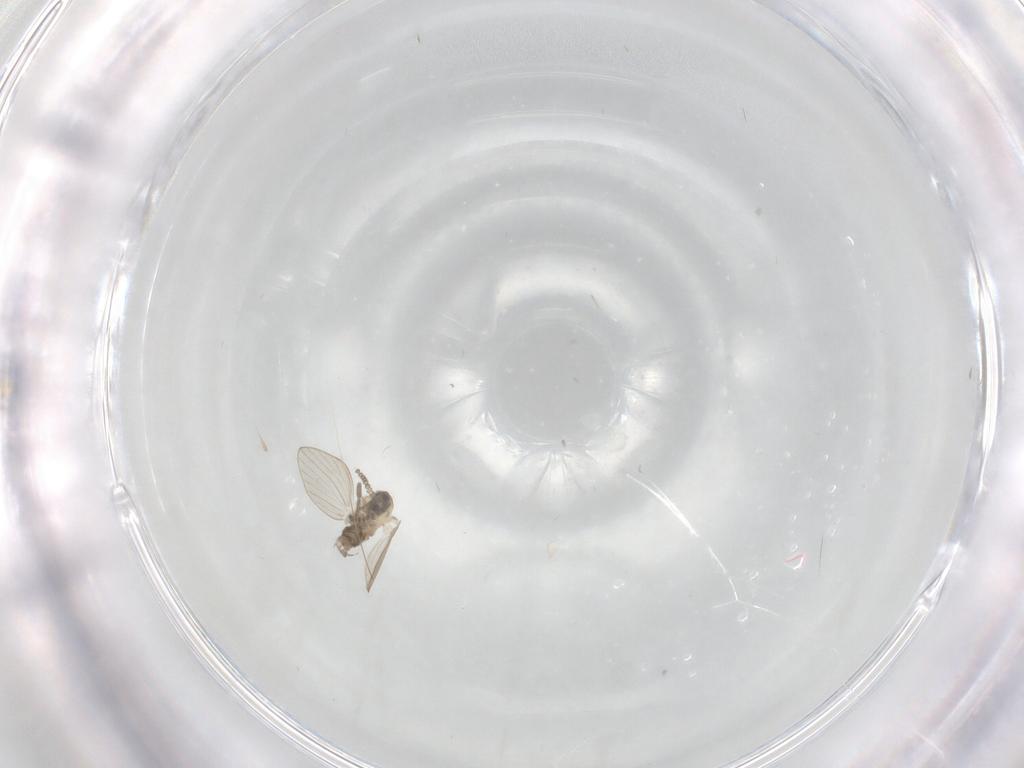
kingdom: Animalia
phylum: Arthropoda
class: Insecta
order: Diptera
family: Chironomidae
